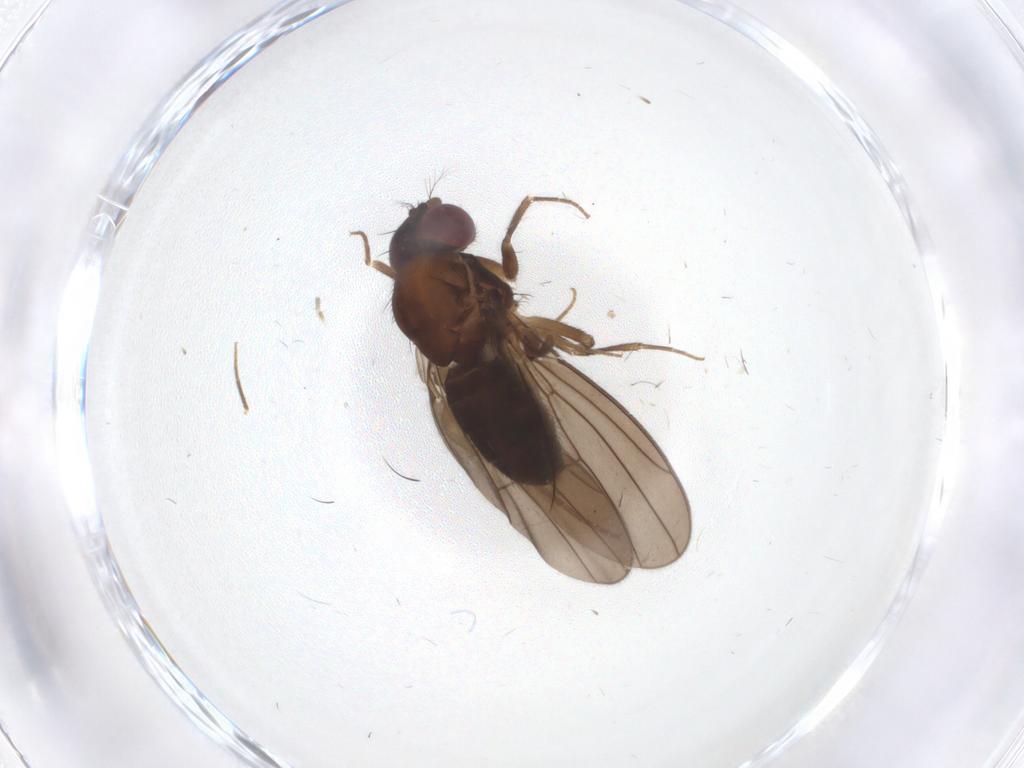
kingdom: Animalia
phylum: Arthropoda
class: Insecta
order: Diptera
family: Drosophilidae
